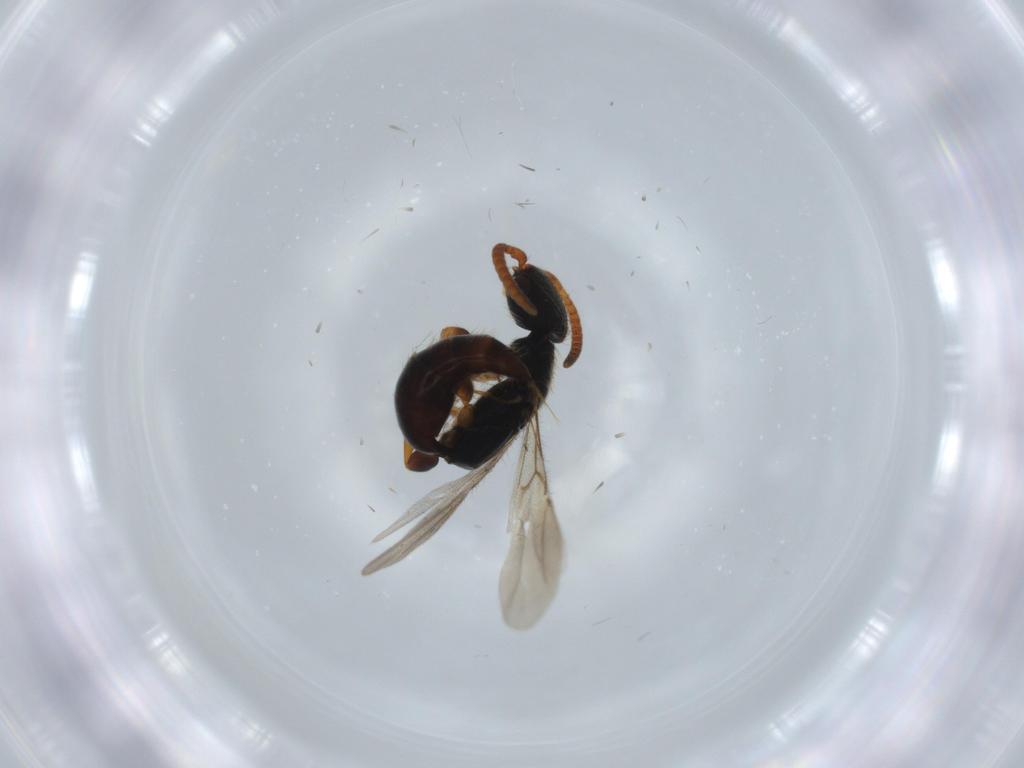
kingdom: Animalia
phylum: Arthropoda
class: Insecta
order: Hymenoptera
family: Bethylidae
